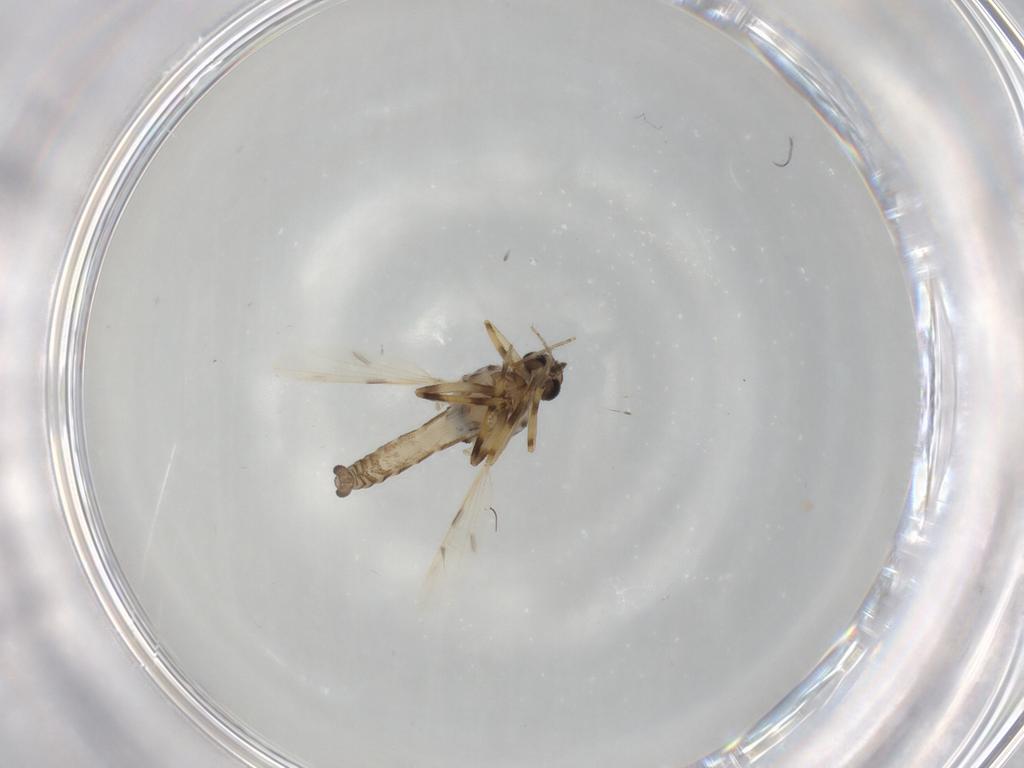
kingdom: Animalia
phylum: Arthropoda
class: Insecta
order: Diptera
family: Ceratopogonidae
